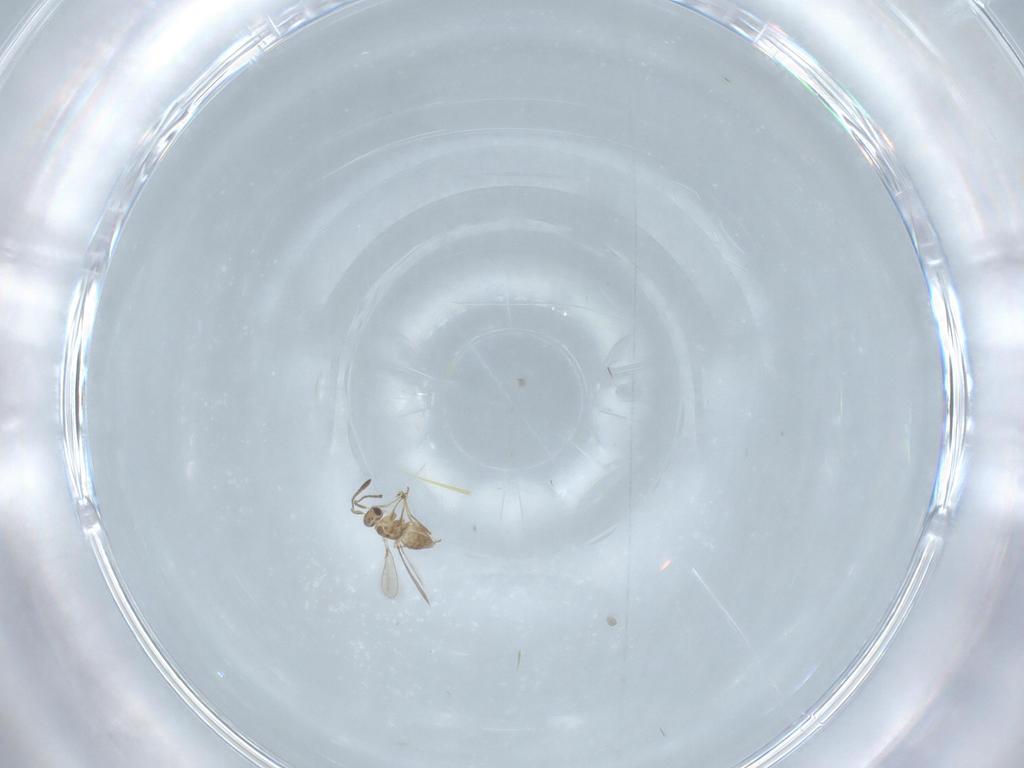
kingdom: Animalia
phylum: Arthropoda
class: Insecta
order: Hymenoptera
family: Mymaridae
